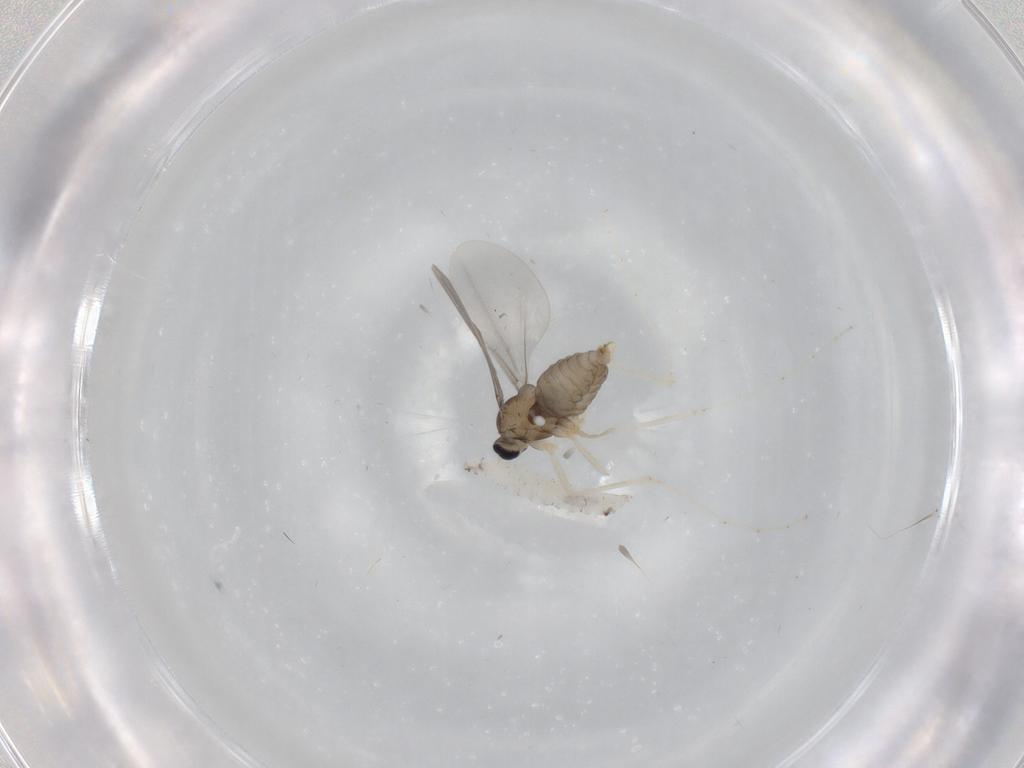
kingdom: Animalia
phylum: Arthropoda
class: Insecta
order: Diptera
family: Cecidomyiidae
